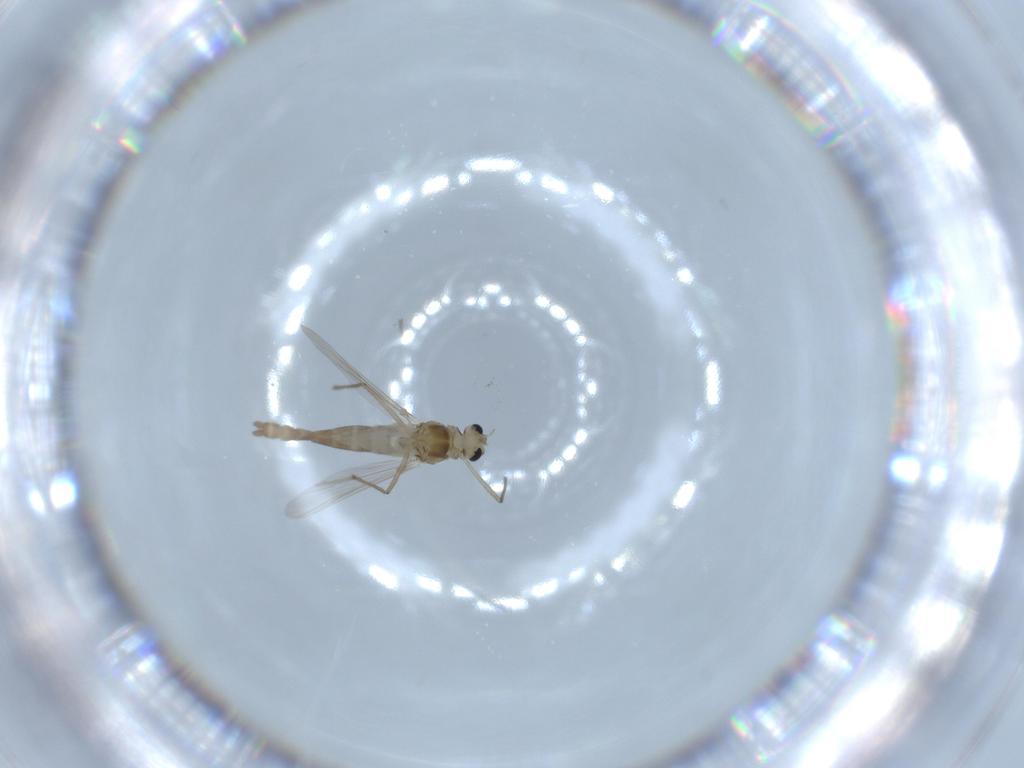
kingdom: Animalia
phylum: Arthropoda
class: Insecta
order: Diptera
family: Chironomidae
